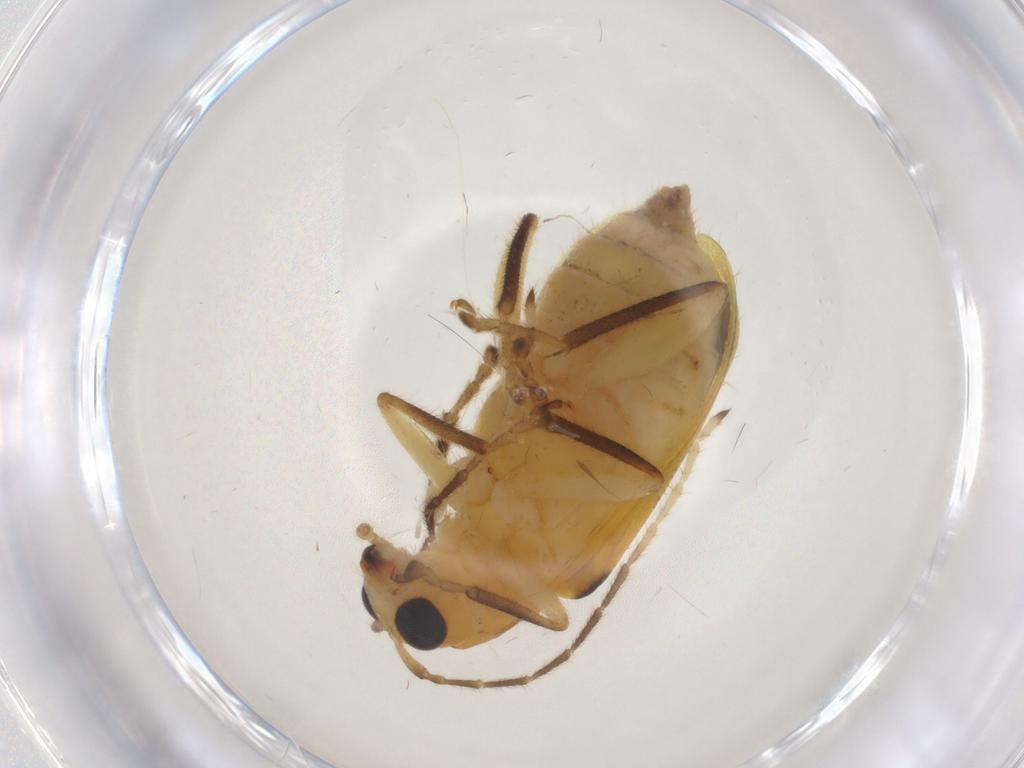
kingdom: Animalia
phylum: Arthropoda
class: Insecta
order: Coleoptera
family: Chrysomelidae
